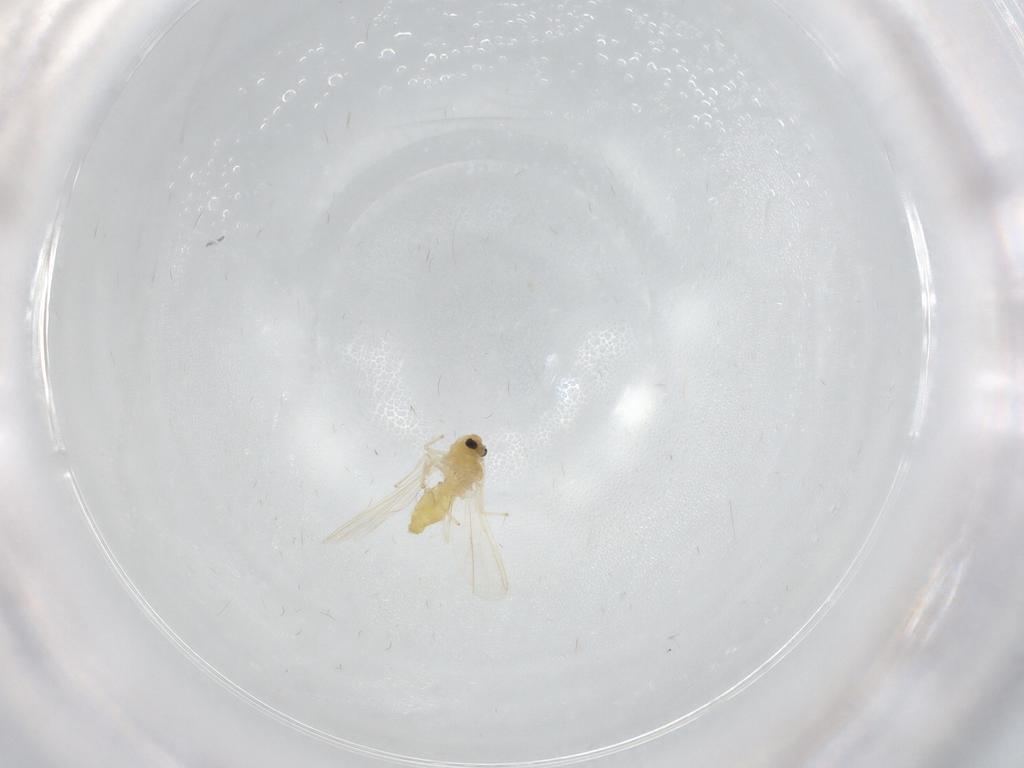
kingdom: Animalia
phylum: Arthropoda
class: Insecta
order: Diptera
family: Chironomidae
